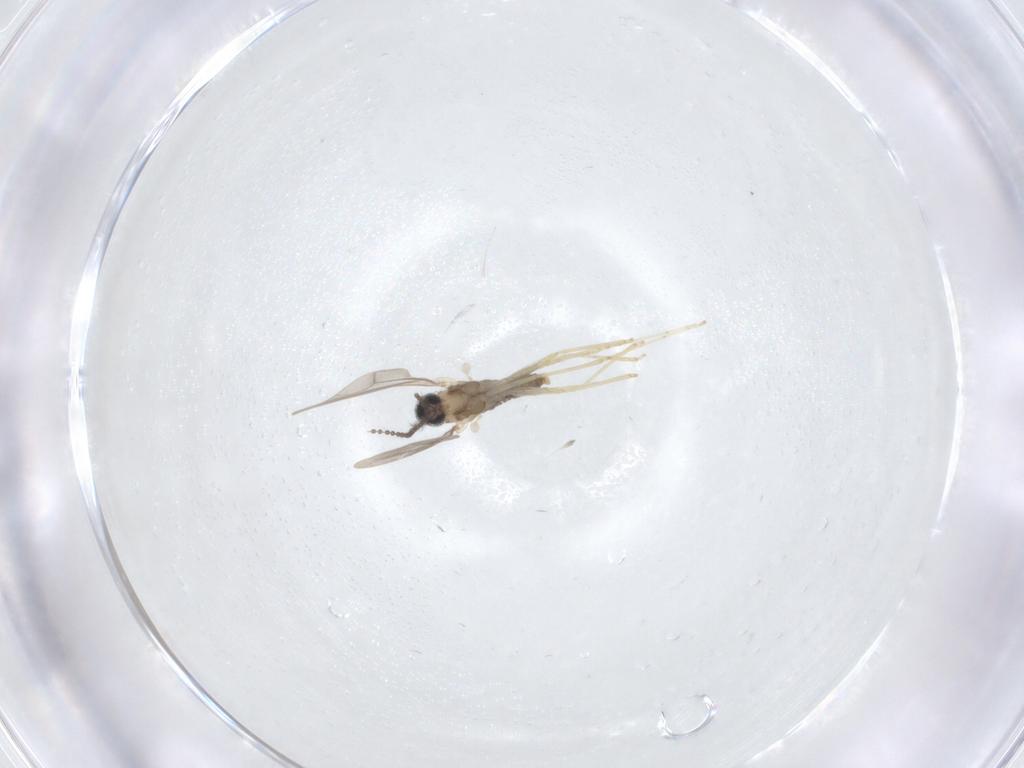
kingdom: Animalia
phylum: Arthropoda
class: Insecta
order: Diptera
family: Cecidomyiidae
